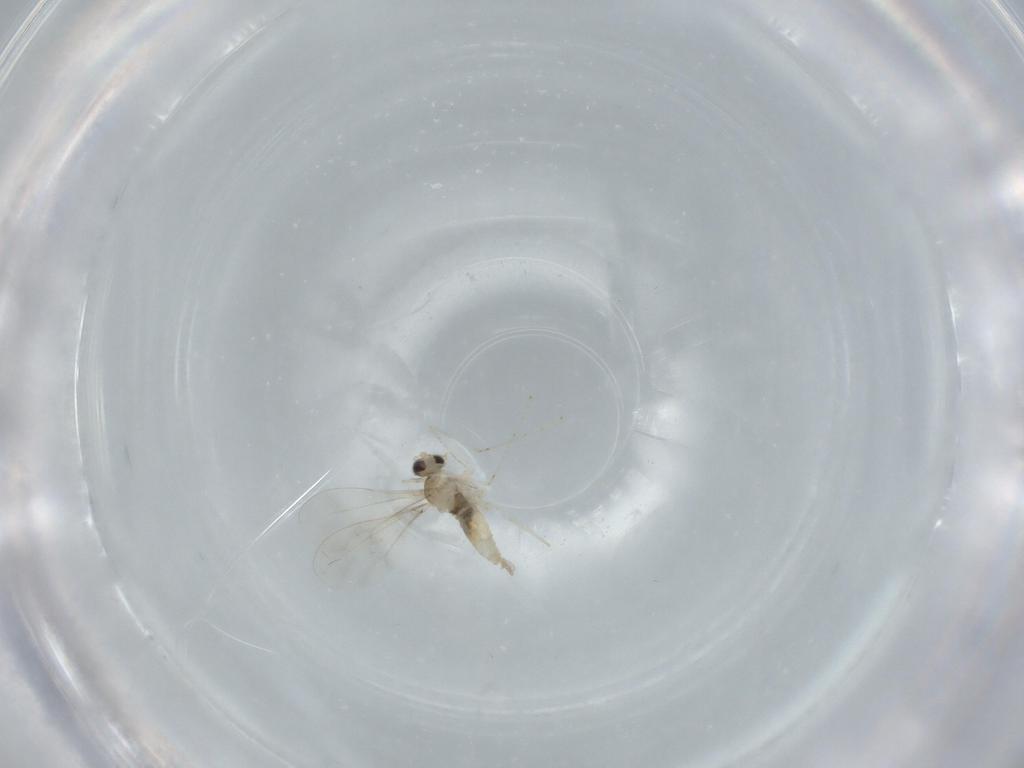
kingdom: Animalia
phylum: Arthropoda
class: Insecta
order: Diptera
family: Cecidomyiidae
